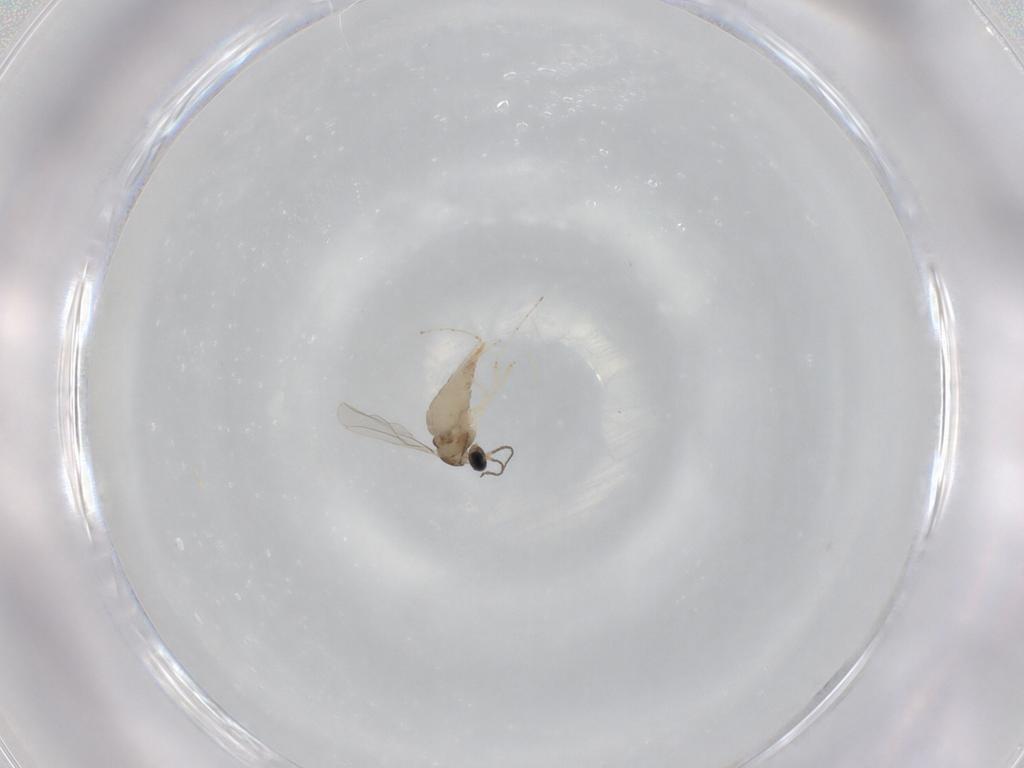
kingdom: Animalia
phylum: Arthropoda
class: Insecta
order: Diptera
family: Cecidomyiidae
